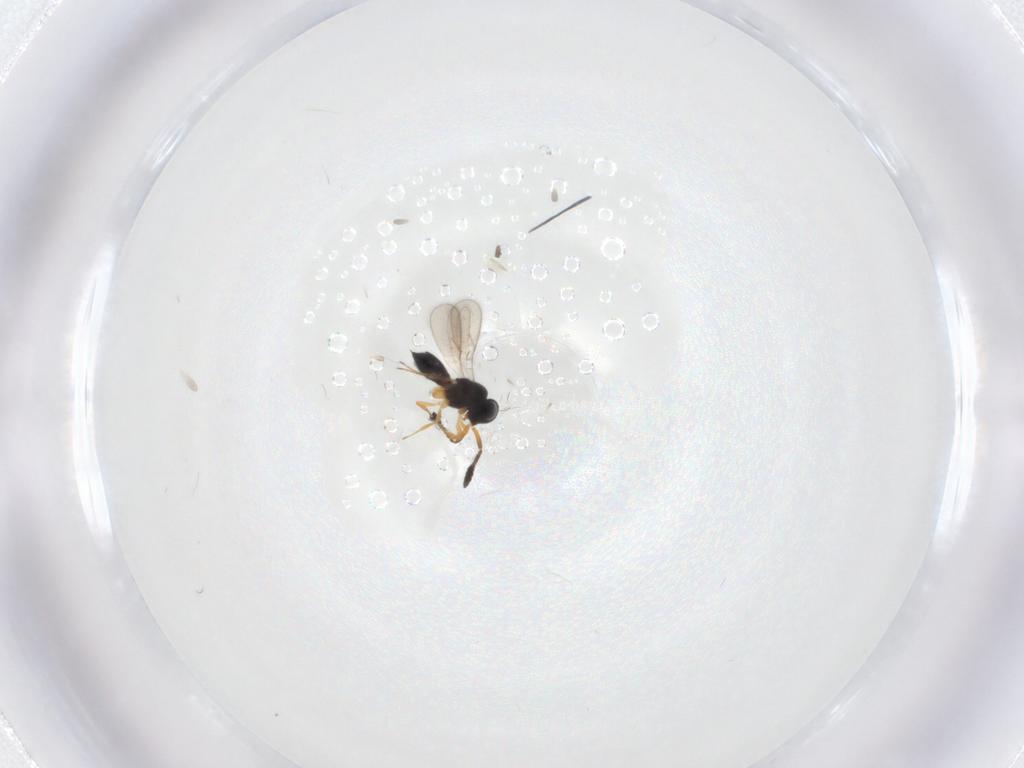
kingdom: Animalia
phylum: Arthropoda
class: Insecta
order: Hymenoptera
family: Scelionidae
